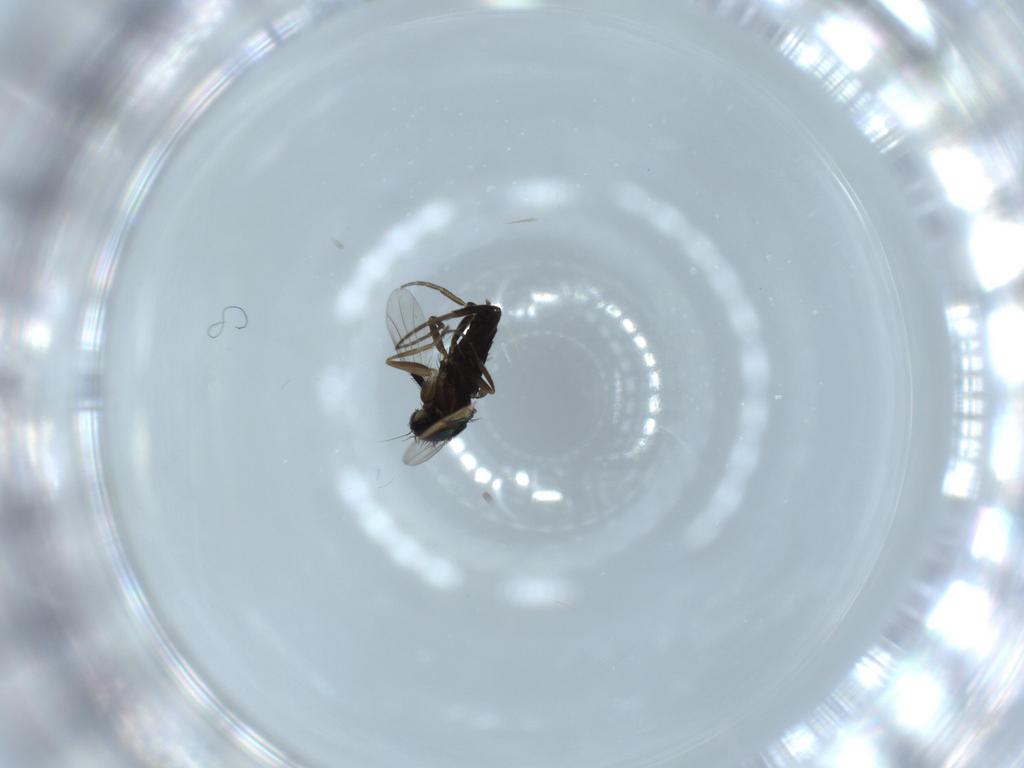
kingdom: Animalia
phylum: Arthropoda
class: Insecta
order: Diptera
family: Phoridae
